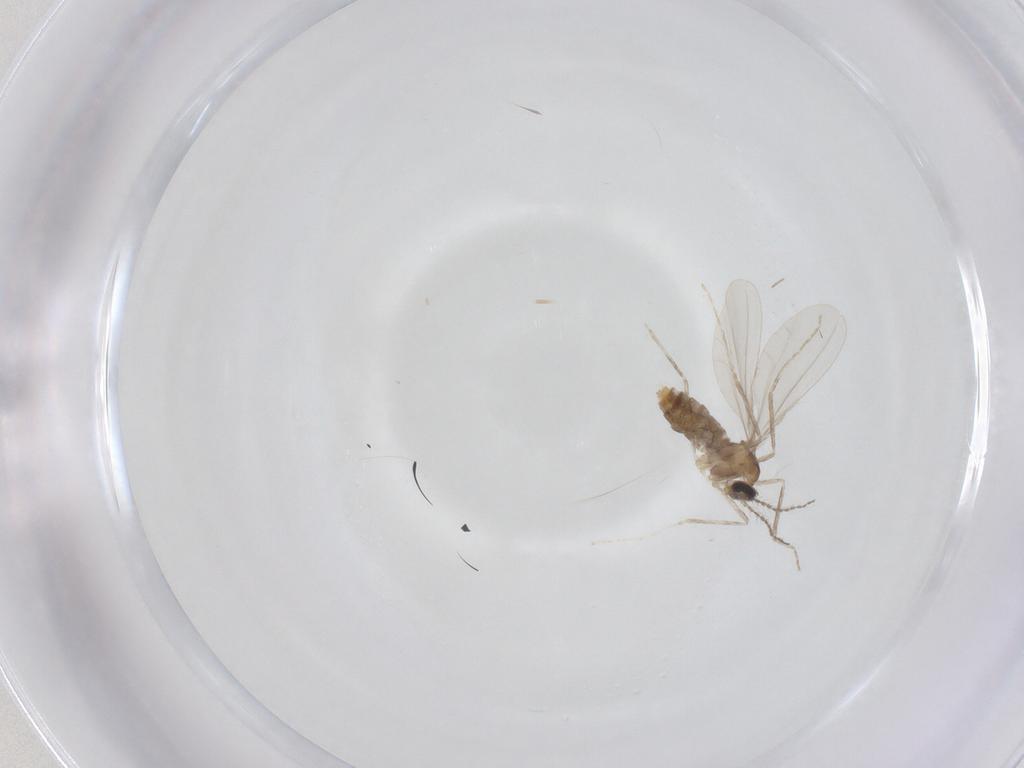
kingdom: Animalia
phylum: Arthropoda
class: Insecta
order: Diptera
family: Cecidomyiidae
